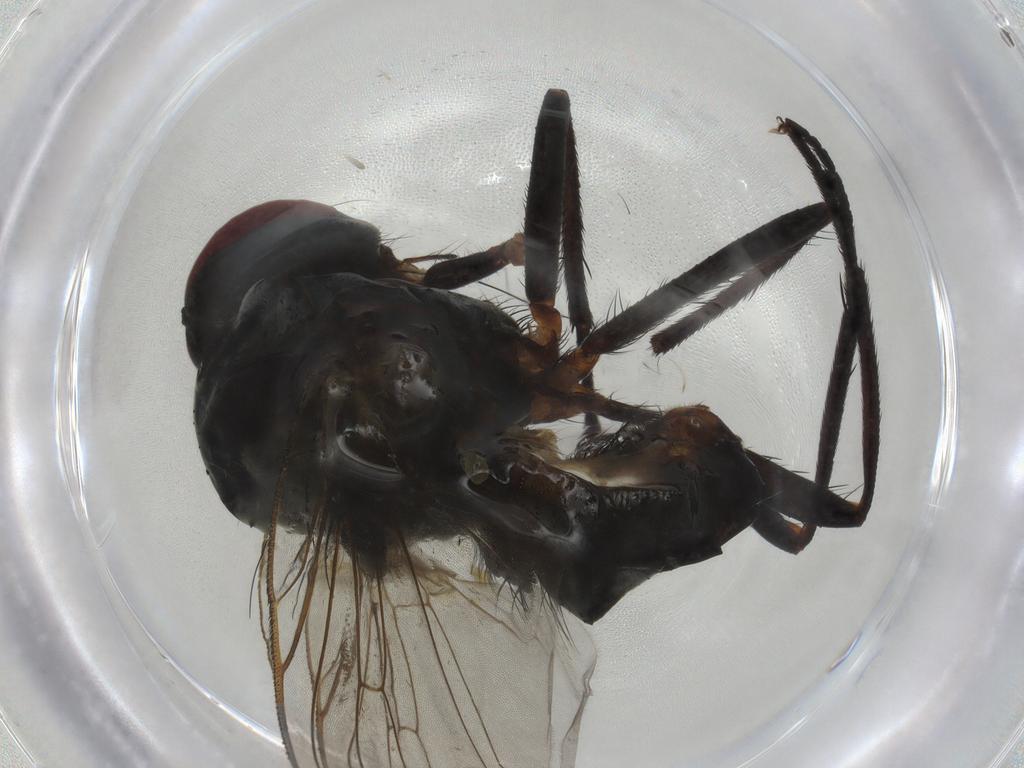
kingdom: Animalia
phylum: Arthropoda
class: Insecta
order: Diptera
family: Anthomyiidae
